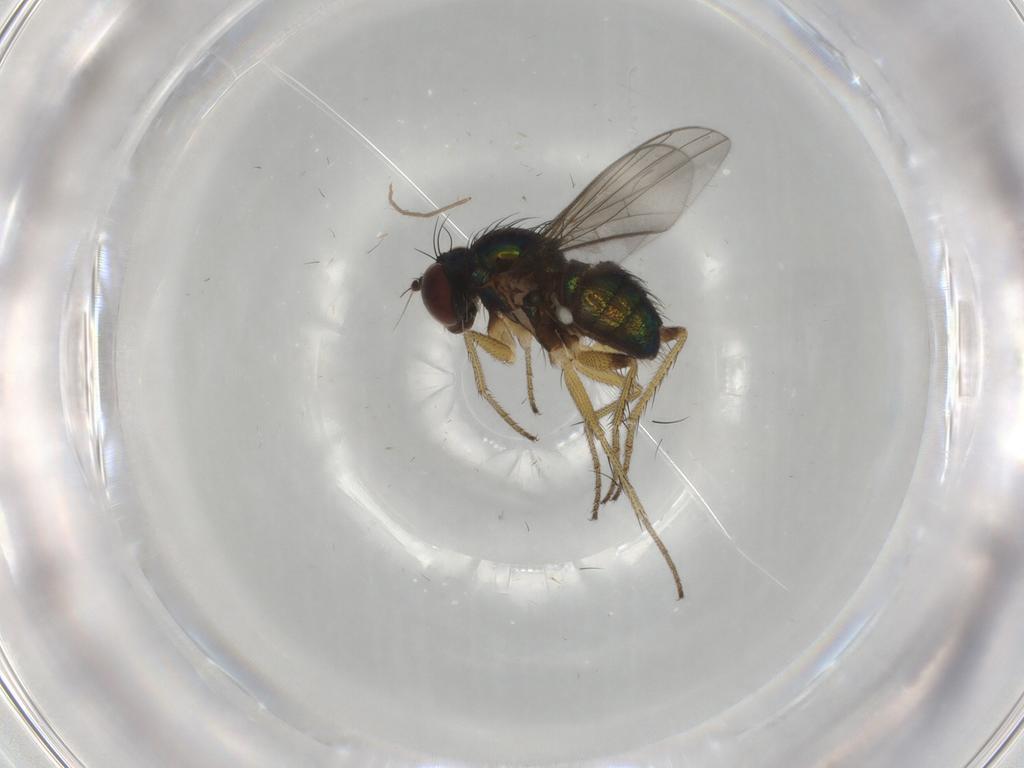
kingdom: Animalia
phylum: Arthropoda
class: Insecta
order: Diptera
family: Dolichopodidae
